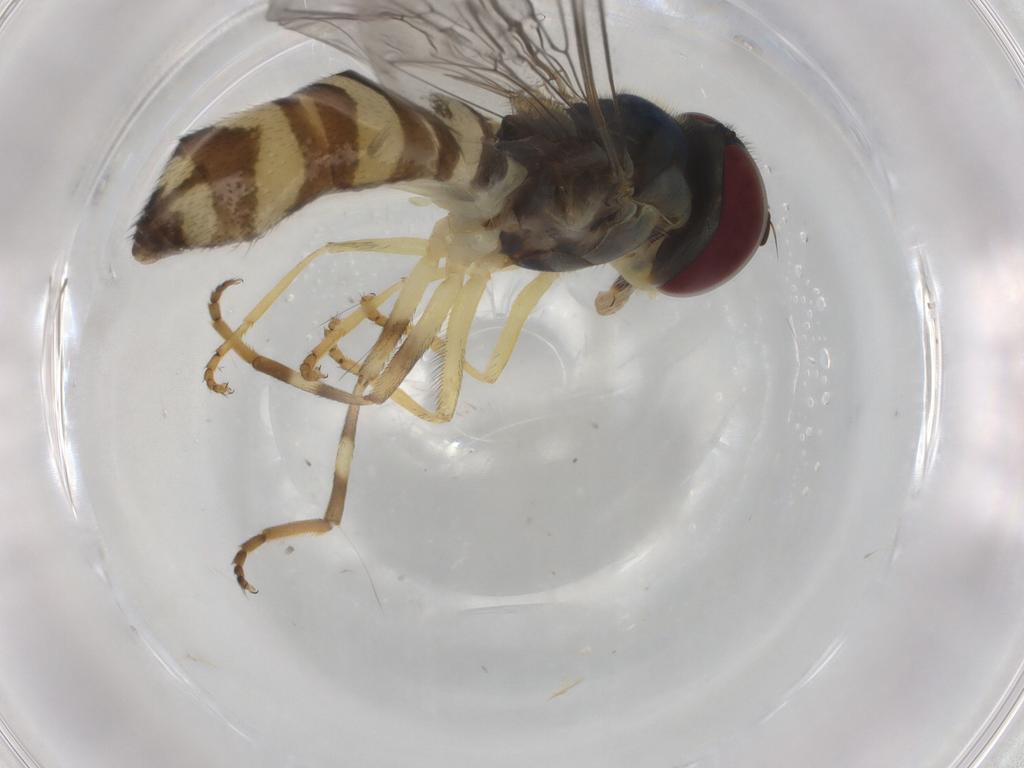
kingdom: Animalia
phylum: Arthropoda
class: Insecta
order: Diptera
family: Syrphidae
